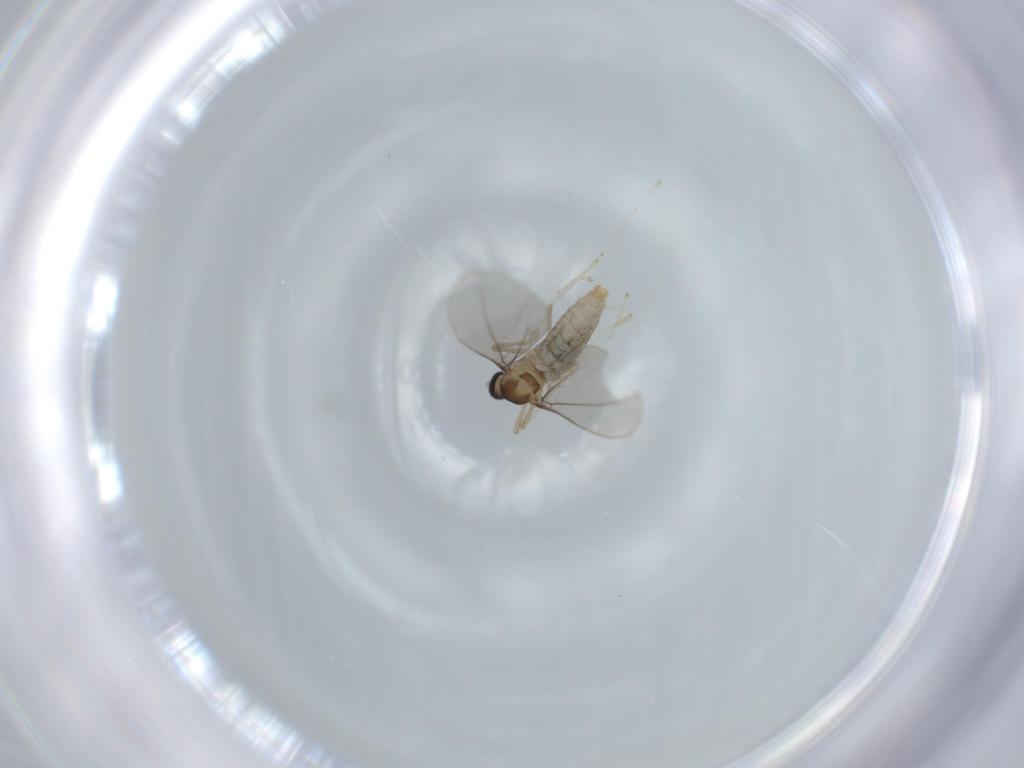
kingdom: Animalia
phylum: Arthropoda
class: Insecta
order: Diptera
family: Cecidomyiidae
